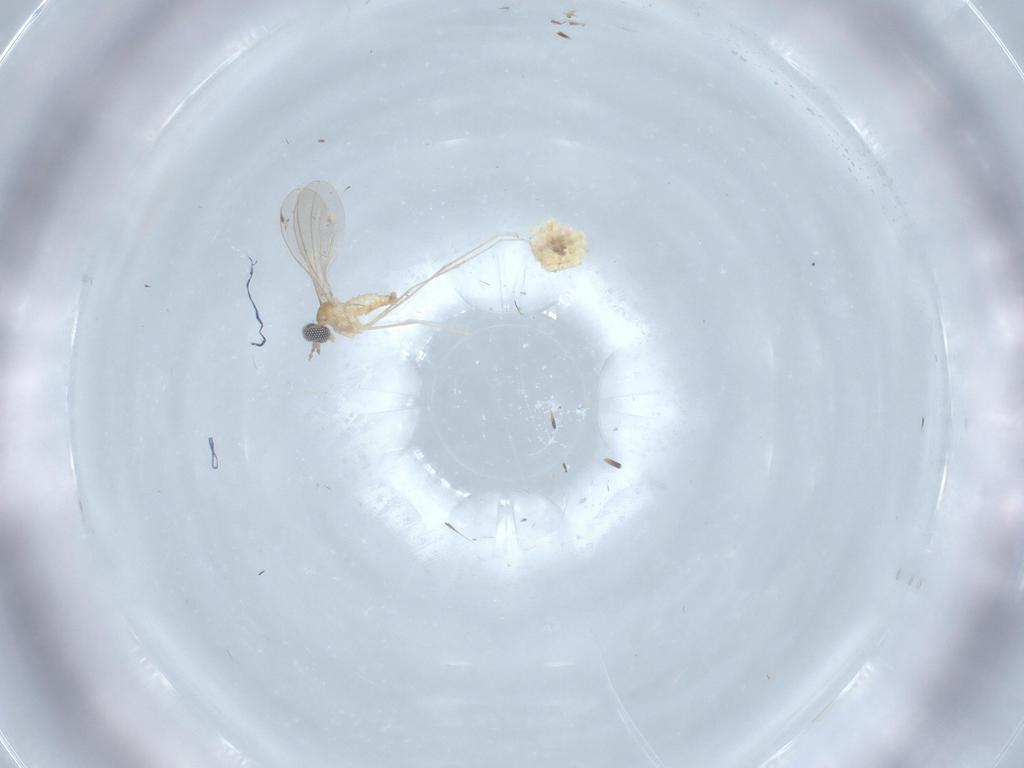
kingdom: Animalia
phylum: Arthropoda
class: Insecta
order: Diptera
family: Cecidomyiidae
